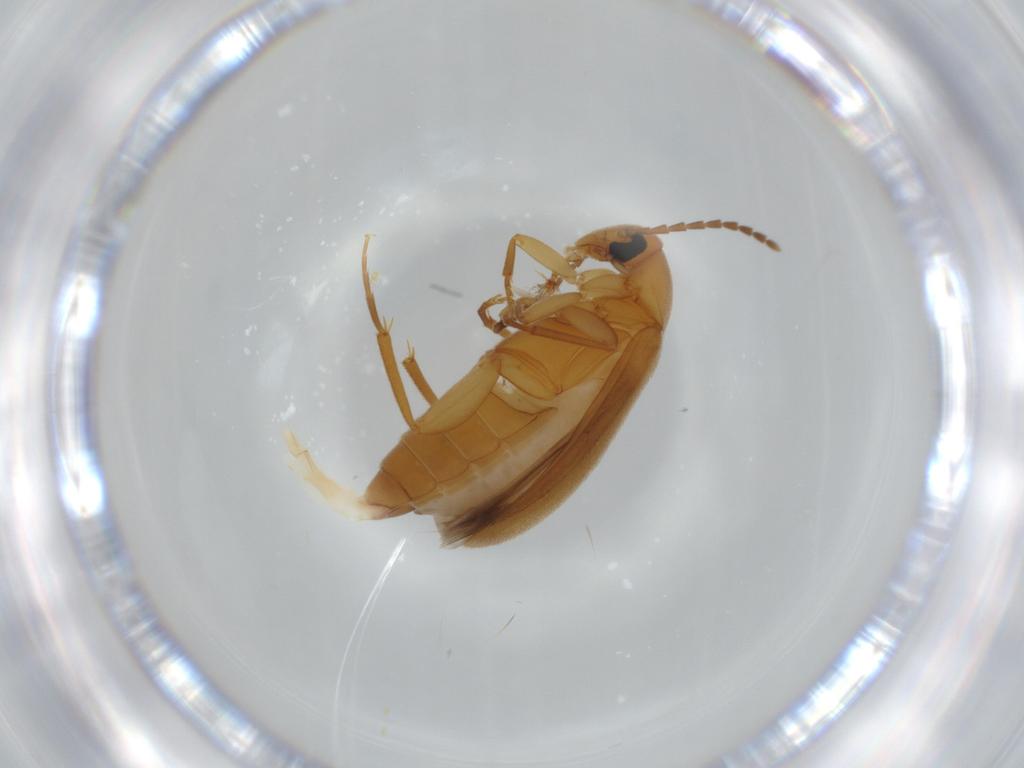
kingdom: Animalia
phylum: Arthropoda
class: Insecta
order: Coleoptera
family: Scraptiidae
